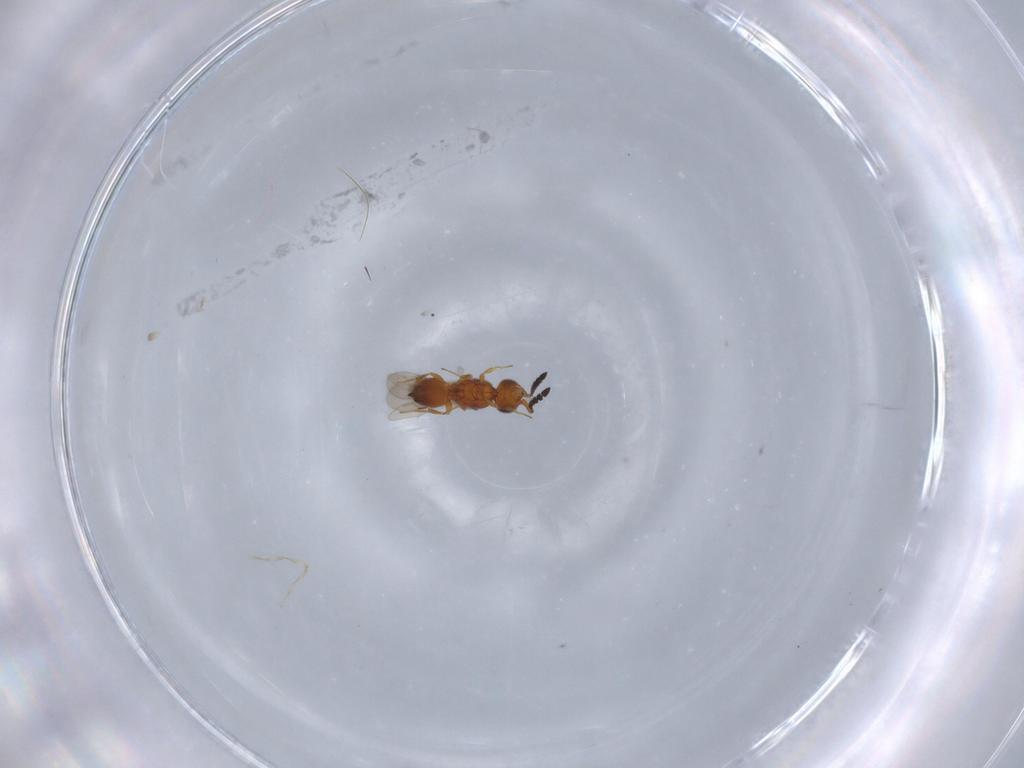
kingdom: Animalia
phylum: Arthropoda
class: Insecta
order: Hymenoptera
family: Ceraphronidae
